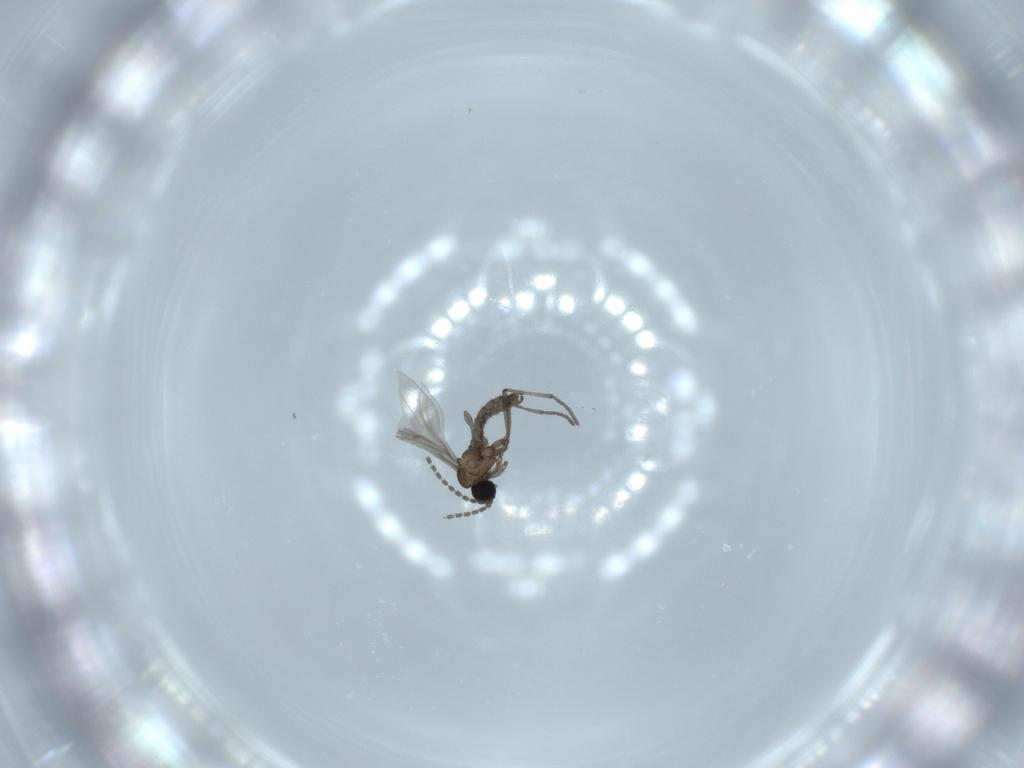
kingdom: Animalia
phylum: Arthropoda
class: Insecta
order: Diptera
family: Sciaridae
